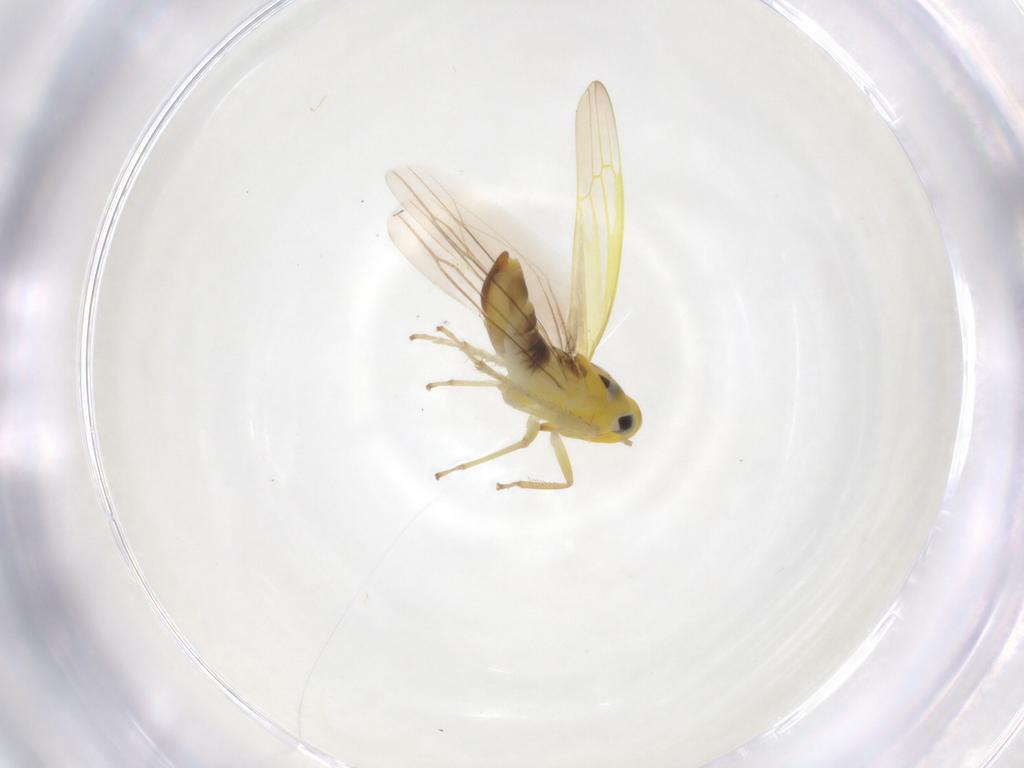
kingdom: Animalia
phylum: Arthropoda
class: Insecta
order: Hemiptera
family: Cicadellidae
